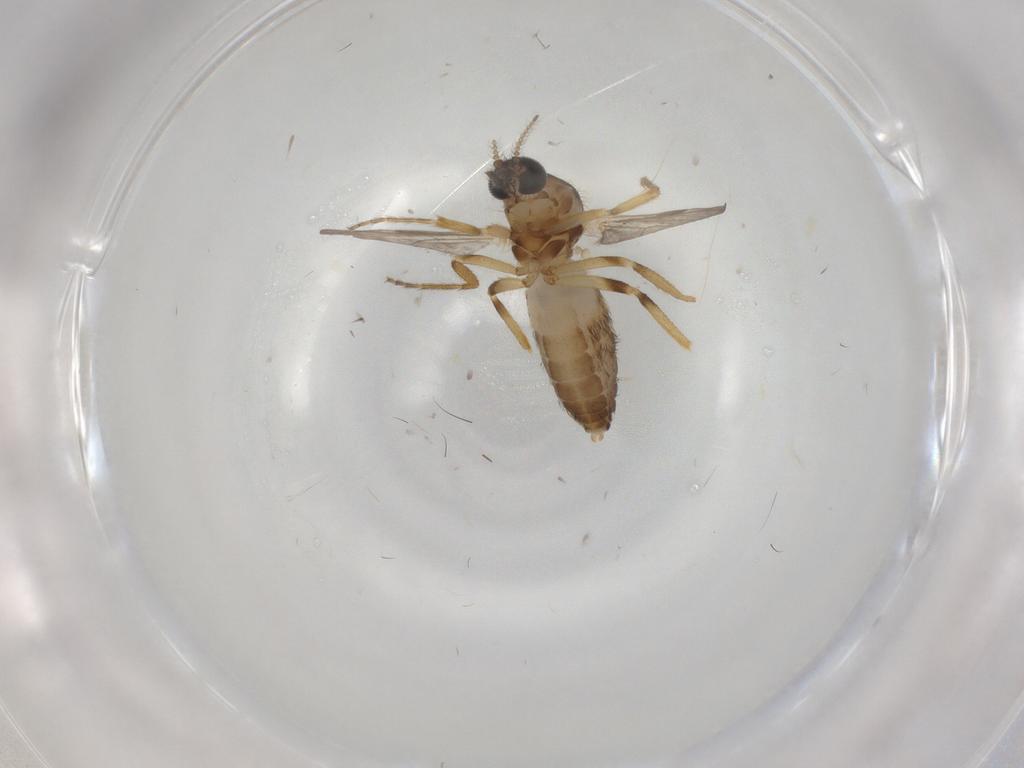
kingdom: Animalia
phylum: Arthropoda
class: Insecta
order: Diptera
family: Ceratopogonidae
